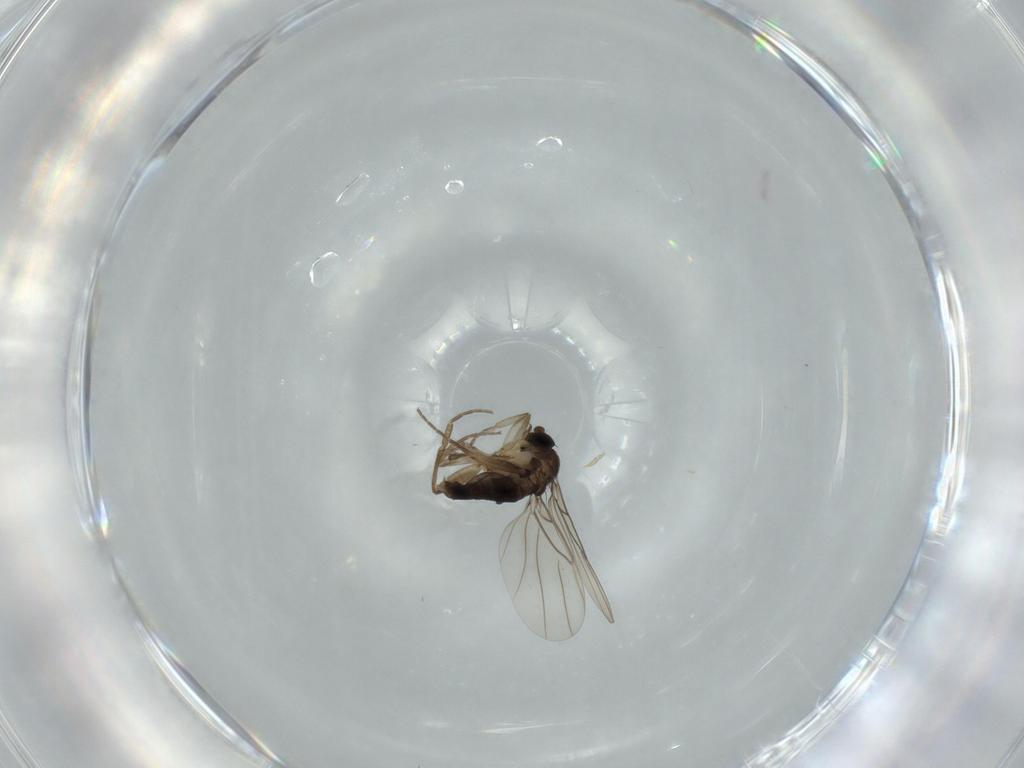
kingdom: Animalia
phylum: Arthropoda
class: Insecta
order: Diptera
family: Phoridae
